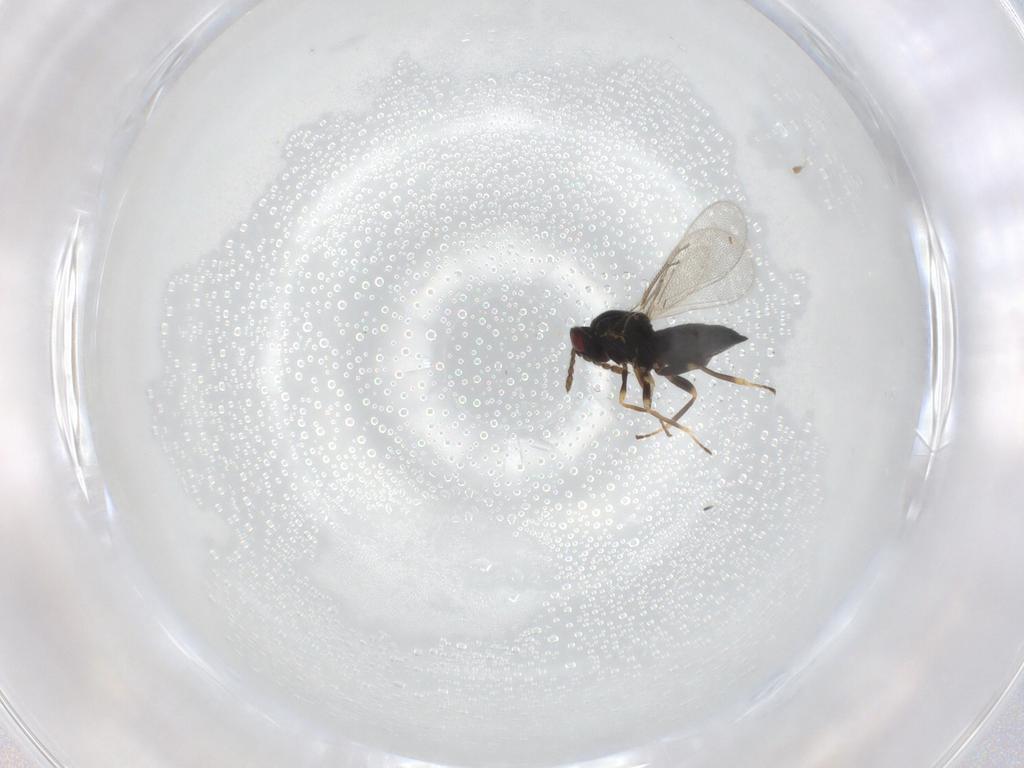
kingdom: Animalia
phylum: Arthropoda
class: Insecta
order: Hymenoptera
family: Eulophidae
